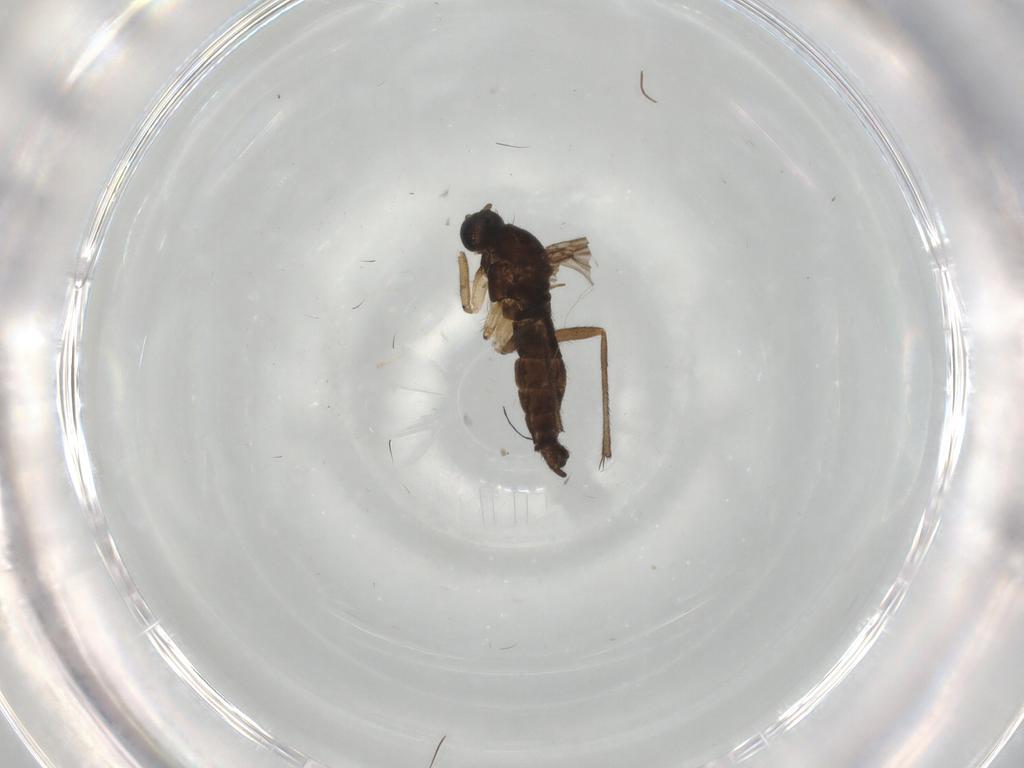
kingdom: Animalia
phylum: Arthropoda
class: Insecta
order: Diptera
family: Sciaridae
